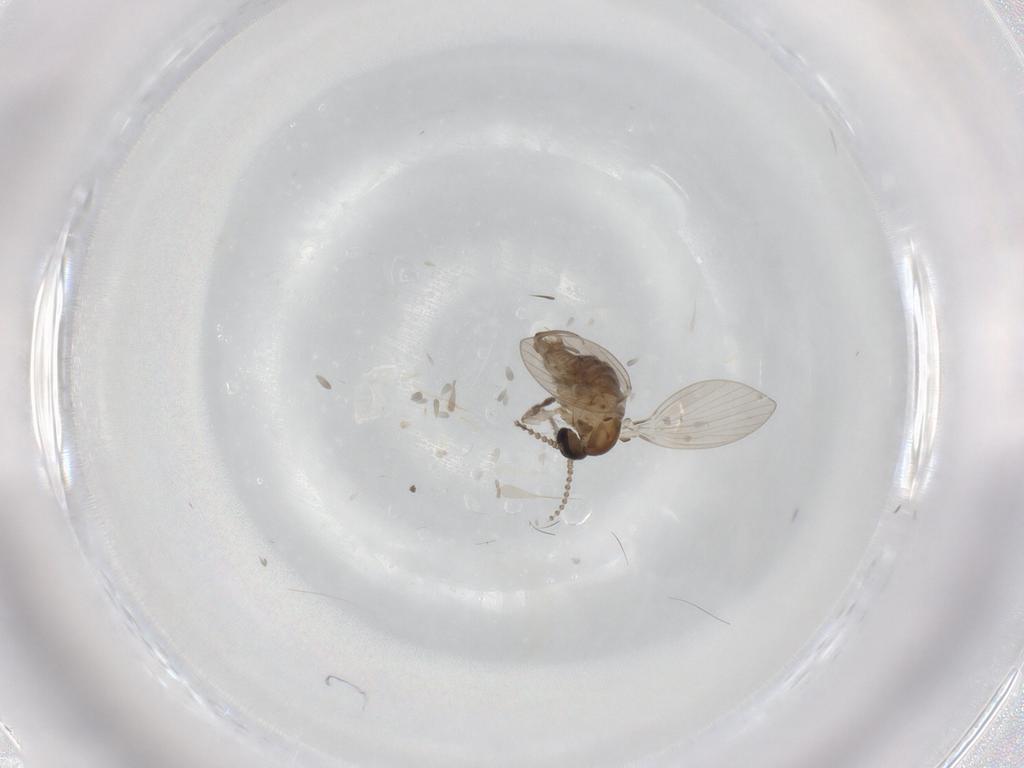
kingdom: Animalia
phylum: Arthropoda
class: Insecta
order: Diptera
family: Psychodidae
